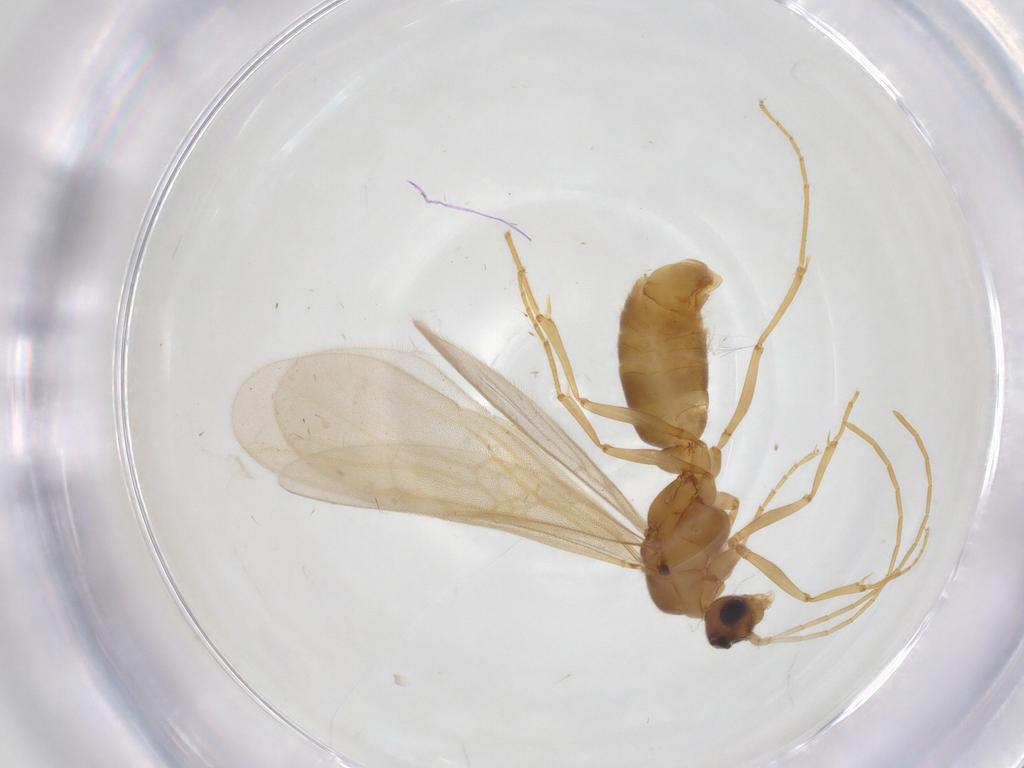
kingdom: Animalia
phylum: Arthropoda
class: Insecta
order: Hymenoptera
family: Formicidae
